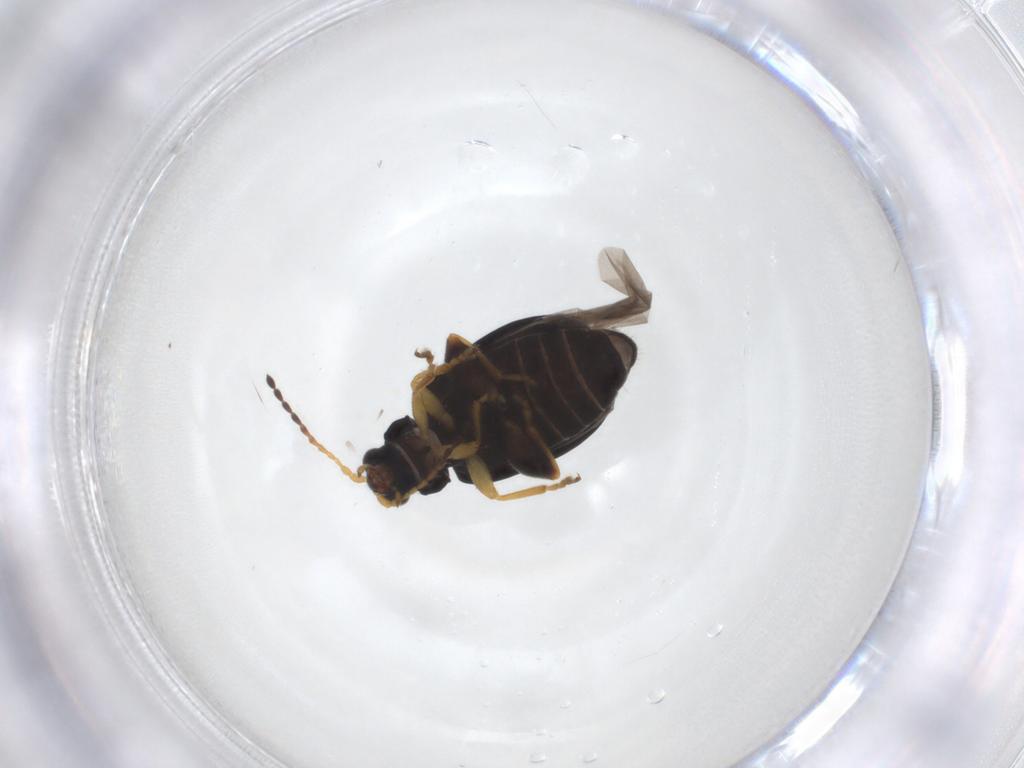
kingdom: Animalia
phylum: Arthropoda
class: Insecta
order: Coleoptera
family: Chrysomelidae
